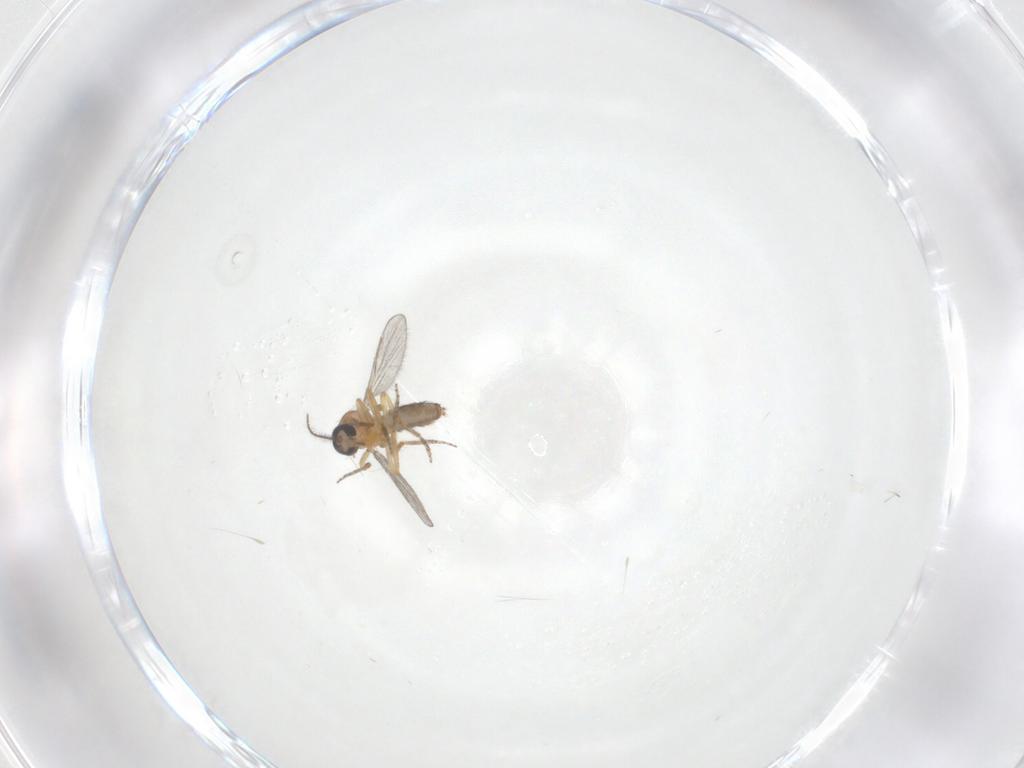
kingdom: Animalia
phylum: Arthropoda
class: Insecta
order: Diptera
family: Ceratopogonidae
